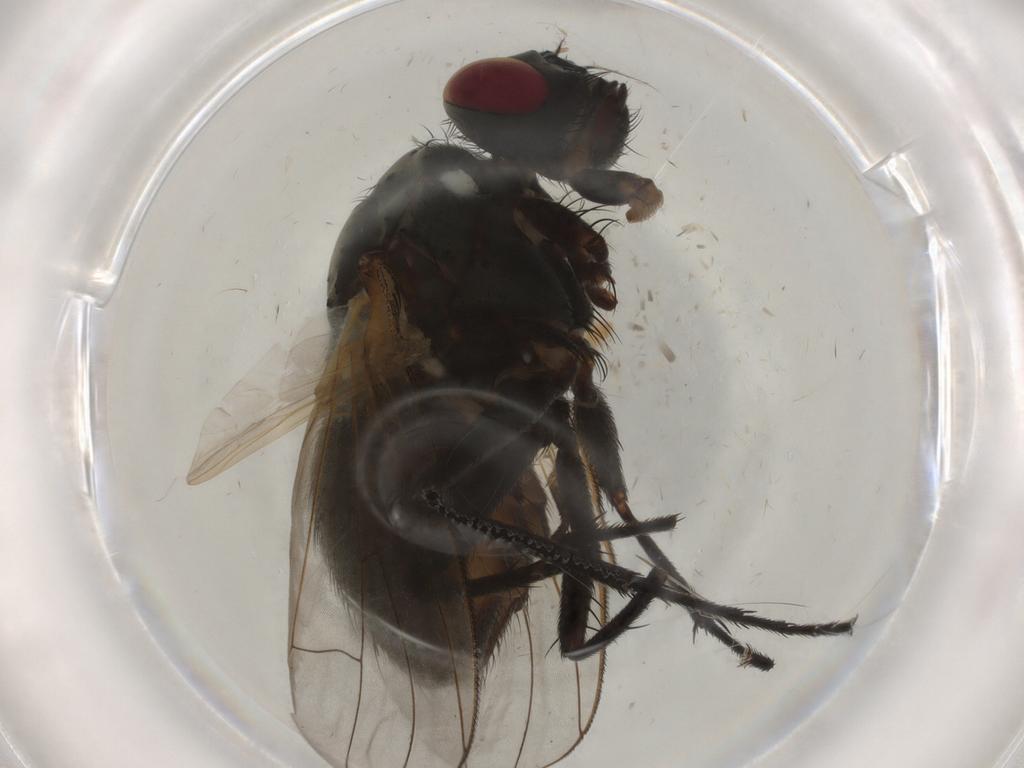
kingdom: Animalia
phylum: Arthropoda
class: Insecta
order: Diptera
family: Chironomidae
